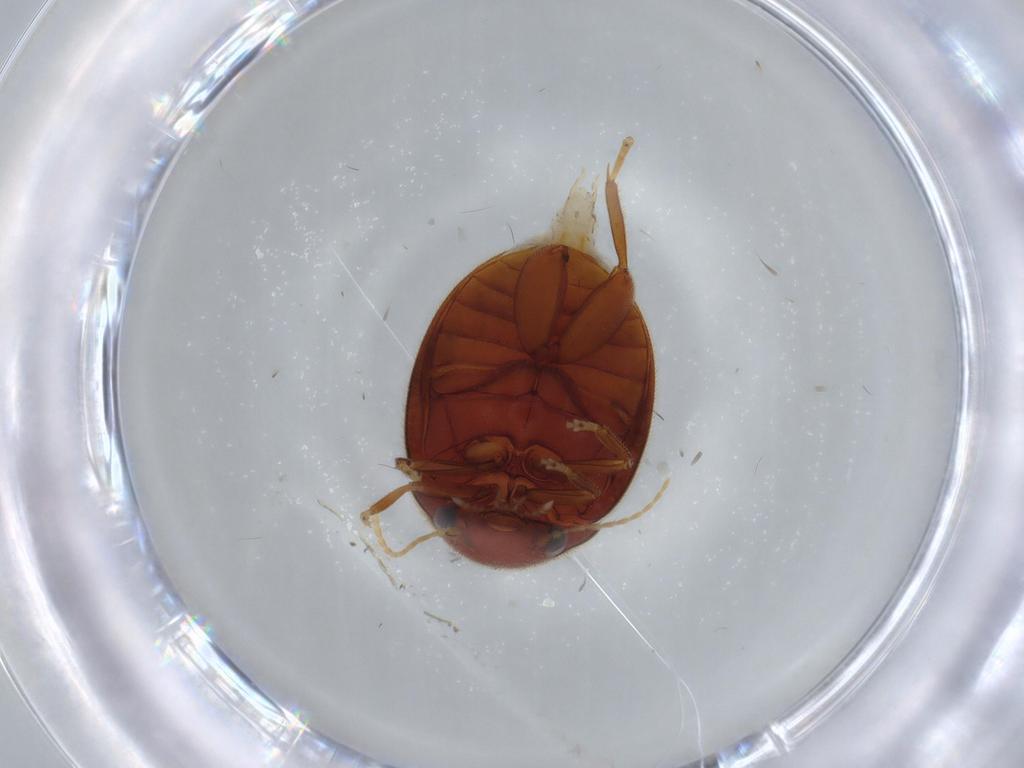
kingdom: Animalia
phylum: Arthropoda
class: Insecta
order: Coleoptera
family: Scirtidae
